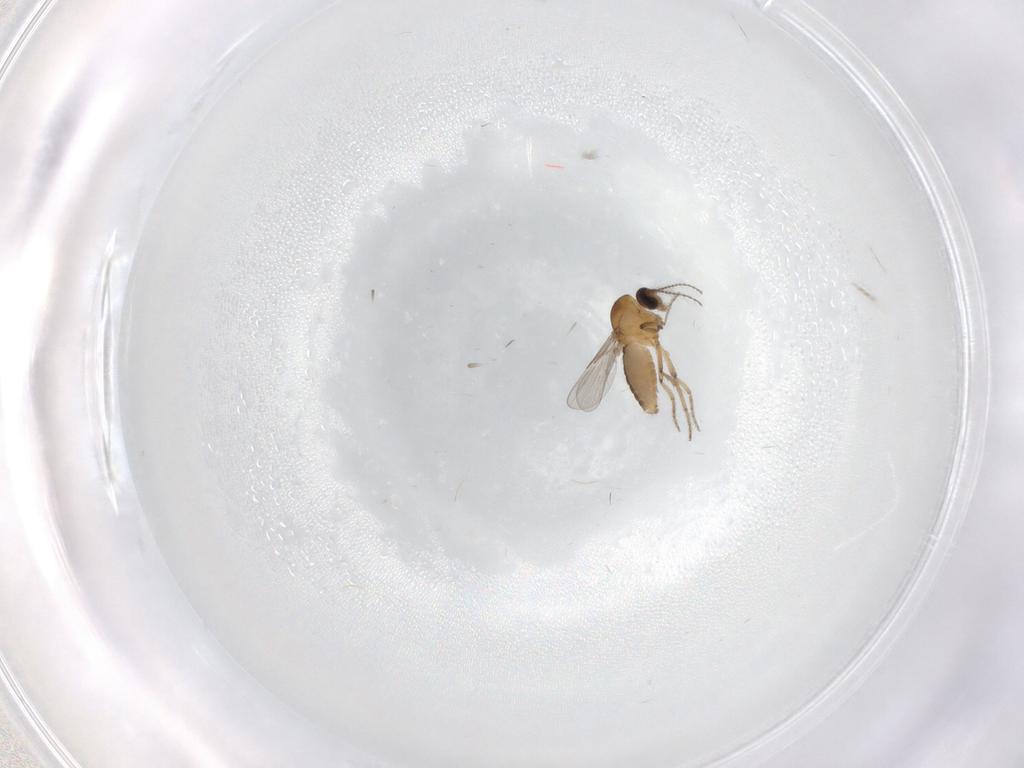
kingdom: Animalia
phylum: Arthropoda
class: Insecta
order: Diptera
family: Ceratopogonidae
